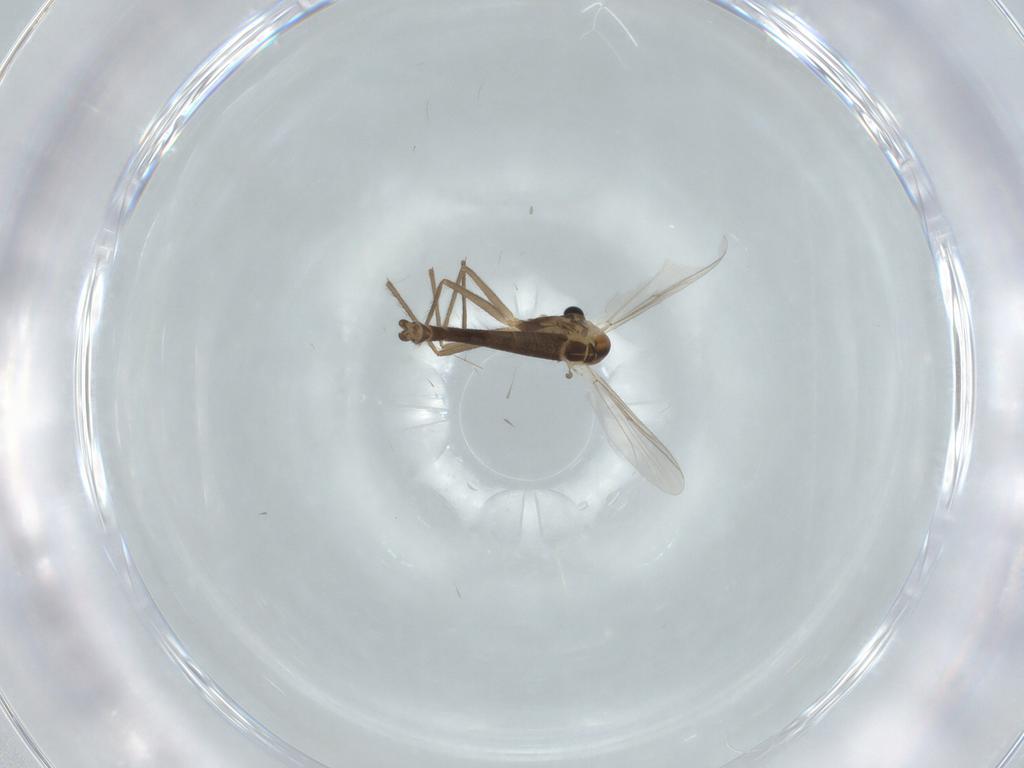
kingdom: Animalia
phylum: Arthropoda
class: Insecta
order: Diptera
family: Chironomidae
